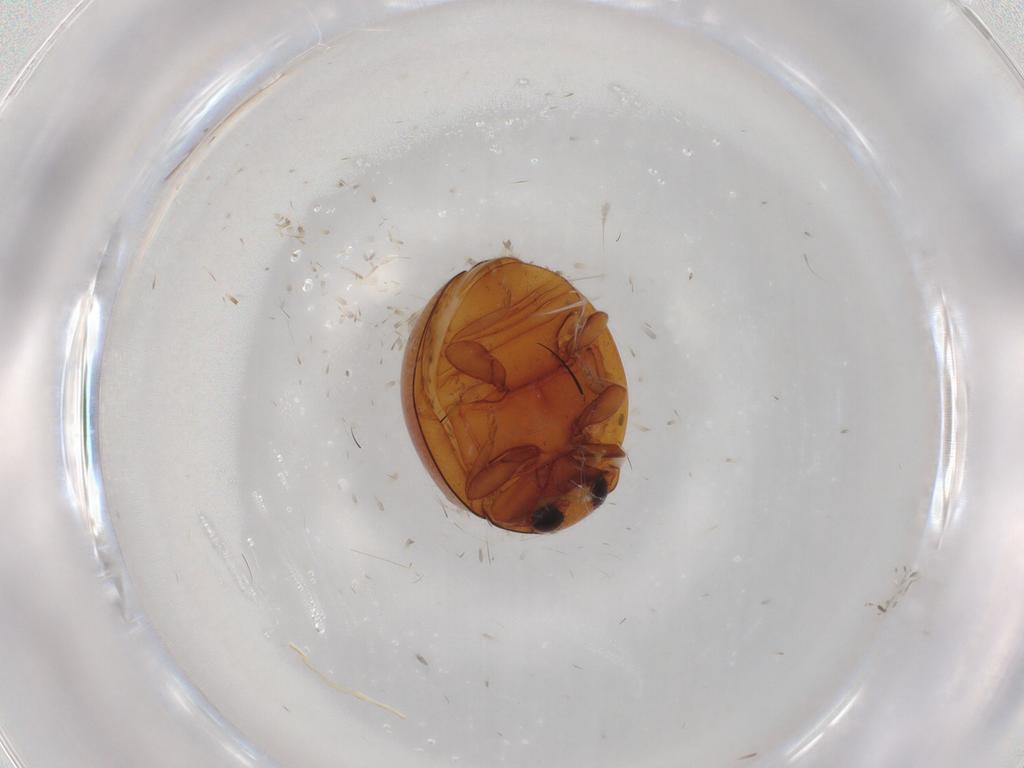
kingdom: Animalia
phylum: Arthropoda
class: Insecta
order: Coleoptera
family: Coccinellidae
